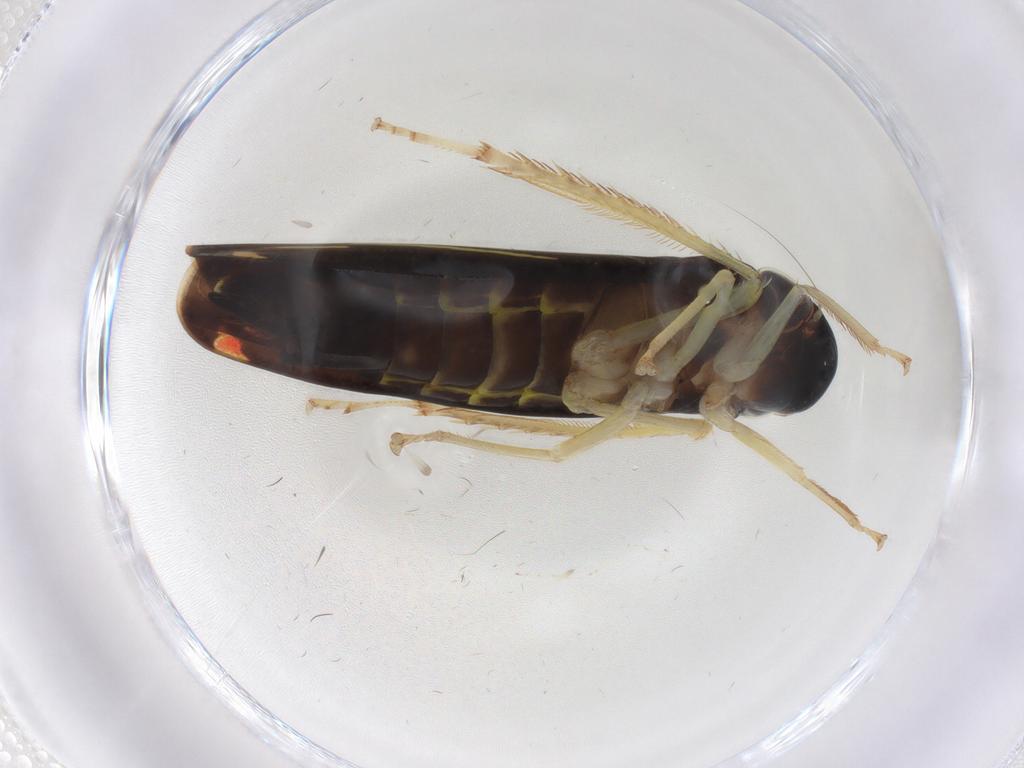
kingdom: Animalia
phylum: Arthropoda
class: Insecta
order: Hemiptera
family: Cicadellidae
